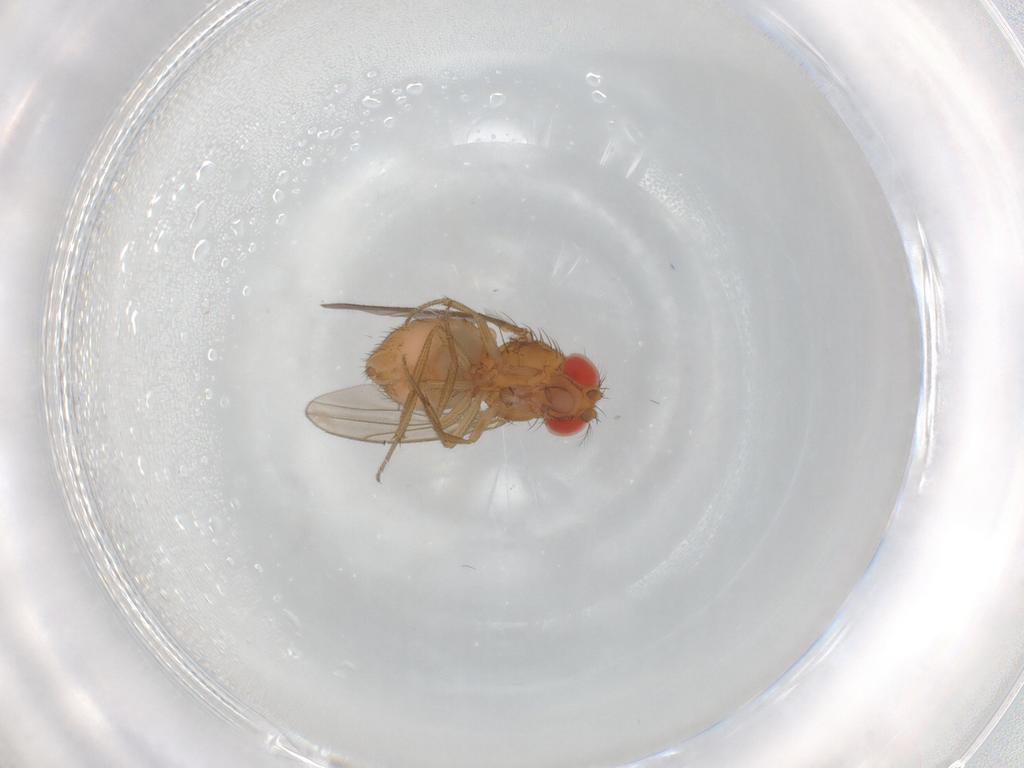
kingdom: Animalia
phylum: Arthropoda
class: Insecta
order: Diptera
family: Drosophilidae
